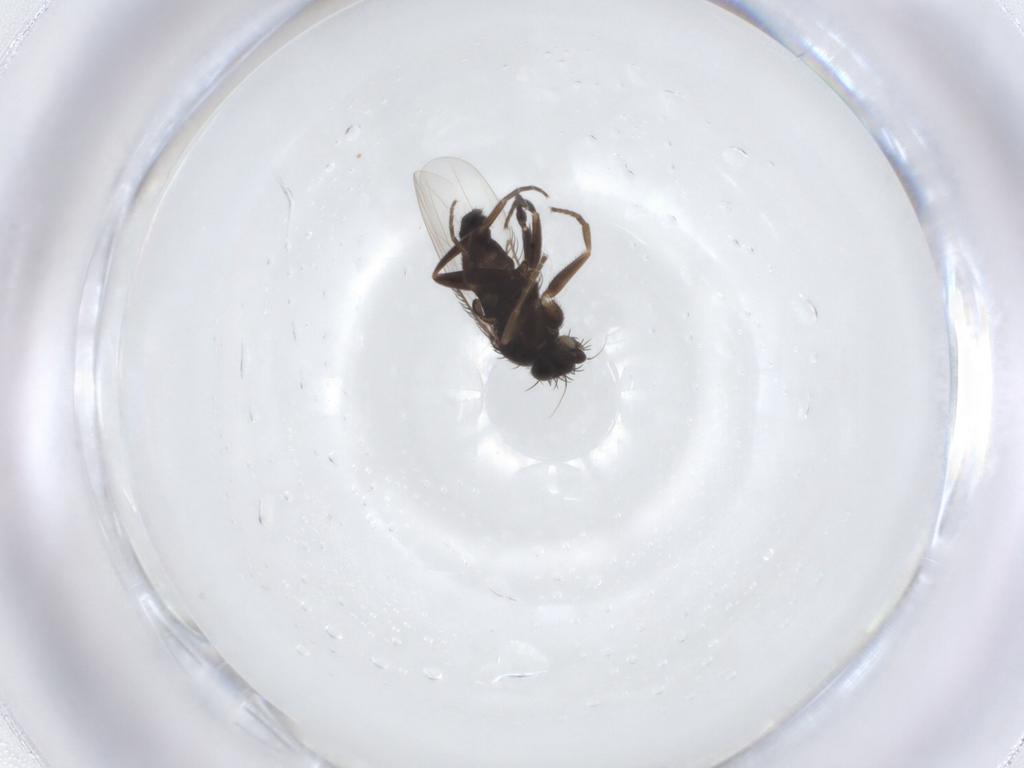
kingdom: Animalia
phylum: Arthropoda
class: Insecta
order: Diptera
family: Phoridae
